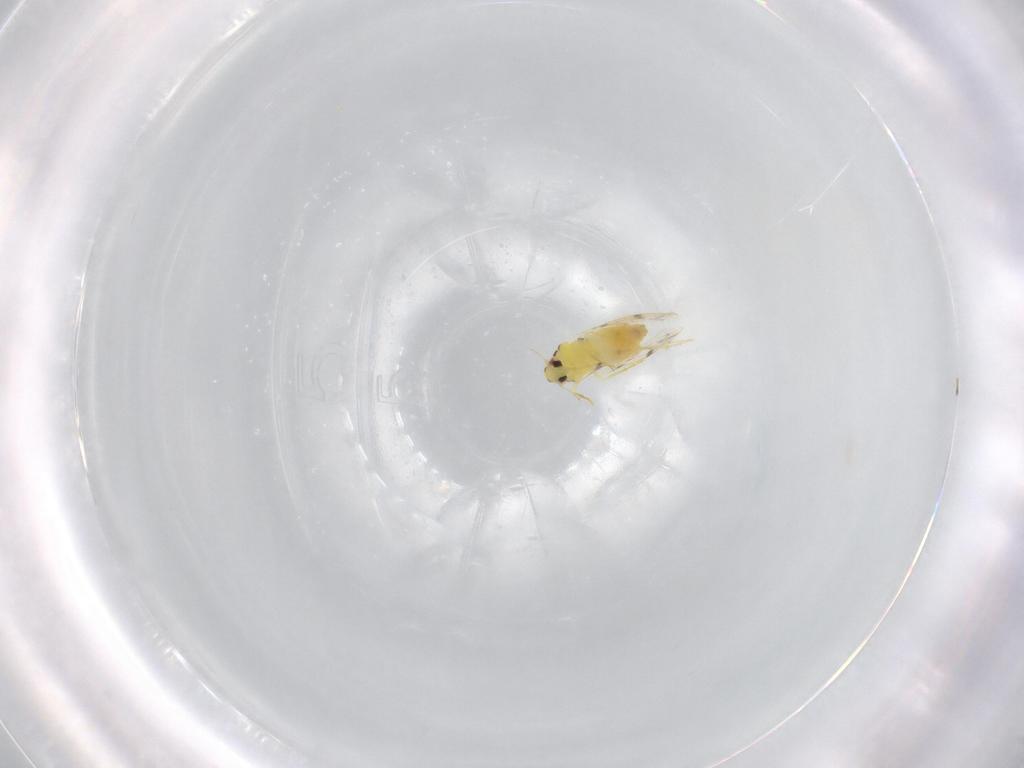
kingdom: Animalia
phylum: Arthropoda
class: Insecta
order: Hemiptera
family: Aleyrodidae
